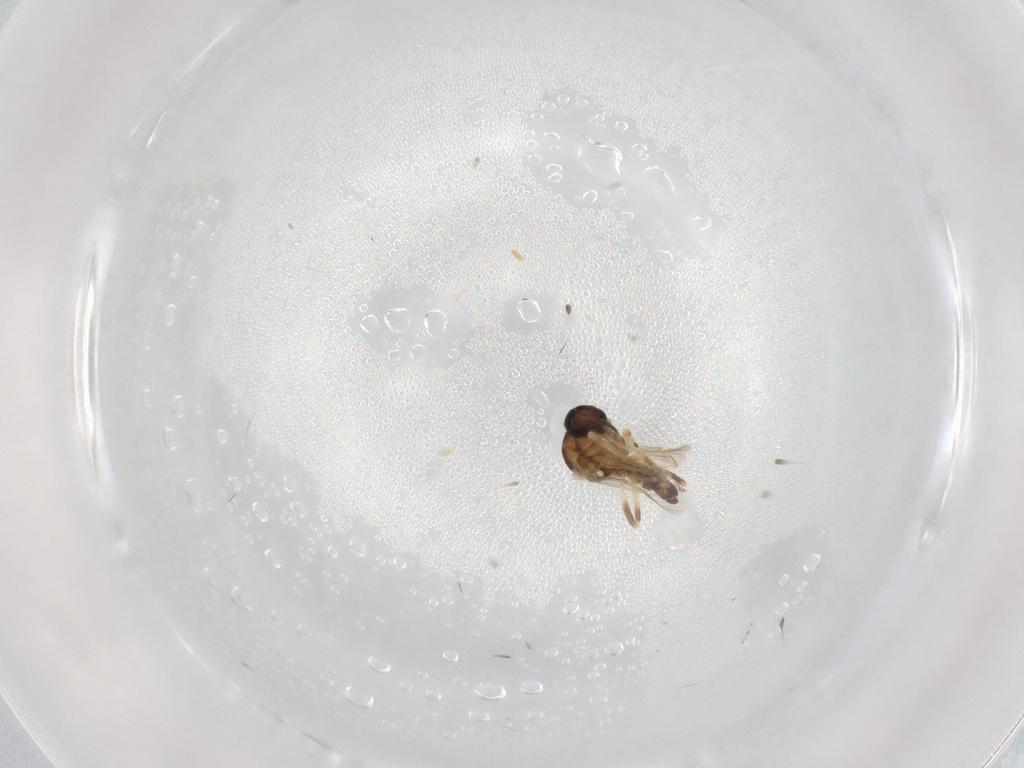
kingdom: Animalia
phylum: Arthropoda
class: Insecta
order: Diptera
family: Ceratopogonidae
